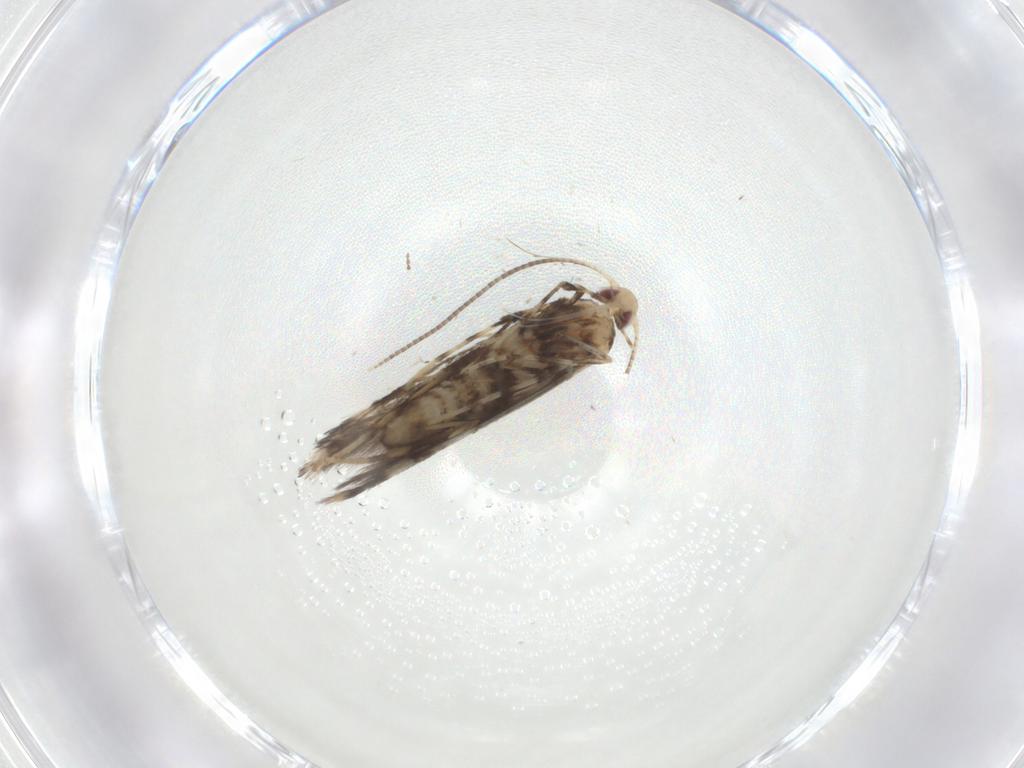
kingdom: Animalia
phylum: Arthropoda
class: Insecta
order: Lepidoptera
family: Gracillariidae
